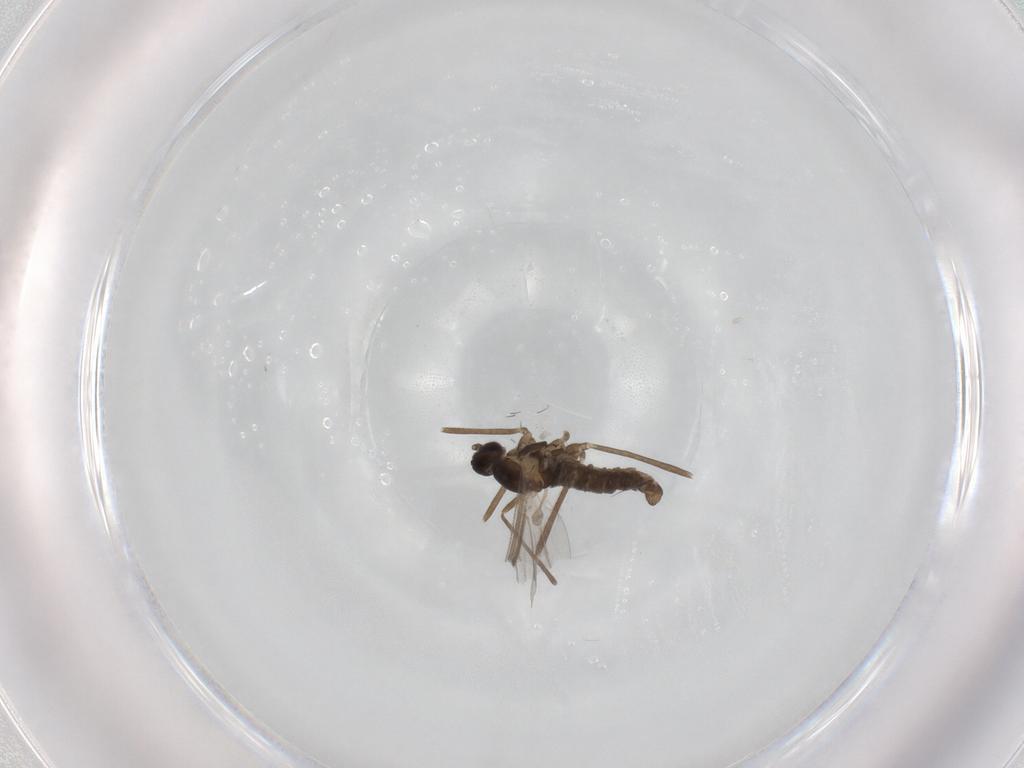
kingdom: Animalia
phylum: Arthropoda
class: Insecta
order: Diptera
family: Cecidomyiidae
